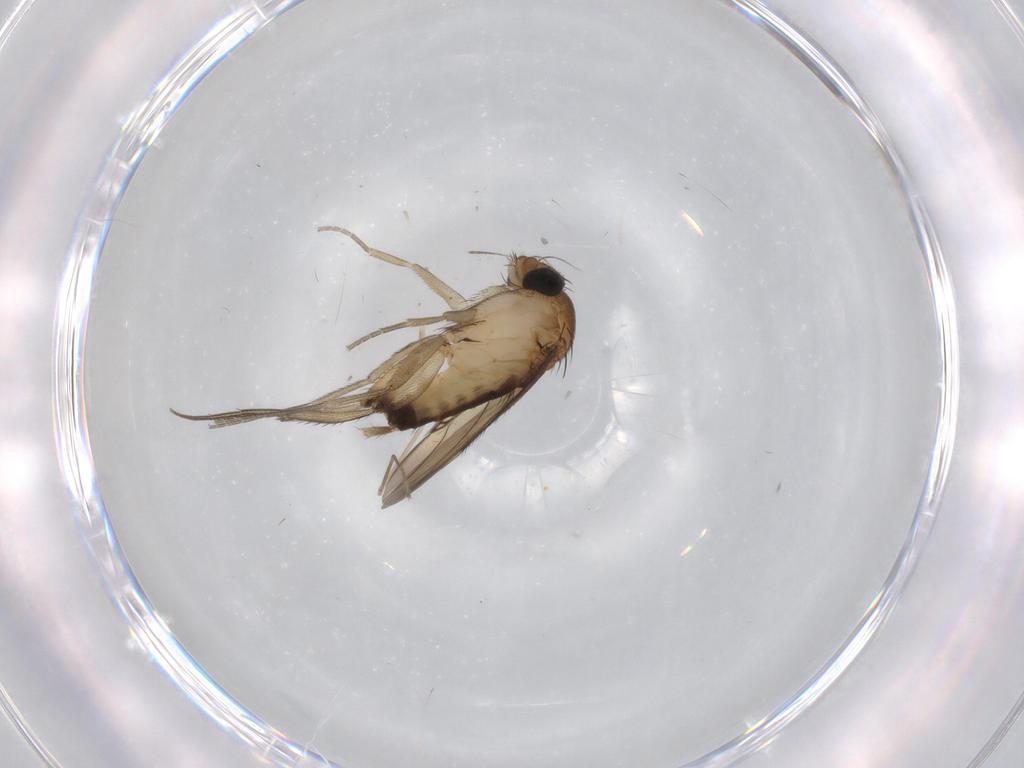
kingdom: Animalia
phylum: Arthropoda
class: Insecta
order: Diptera
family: Phoridae
